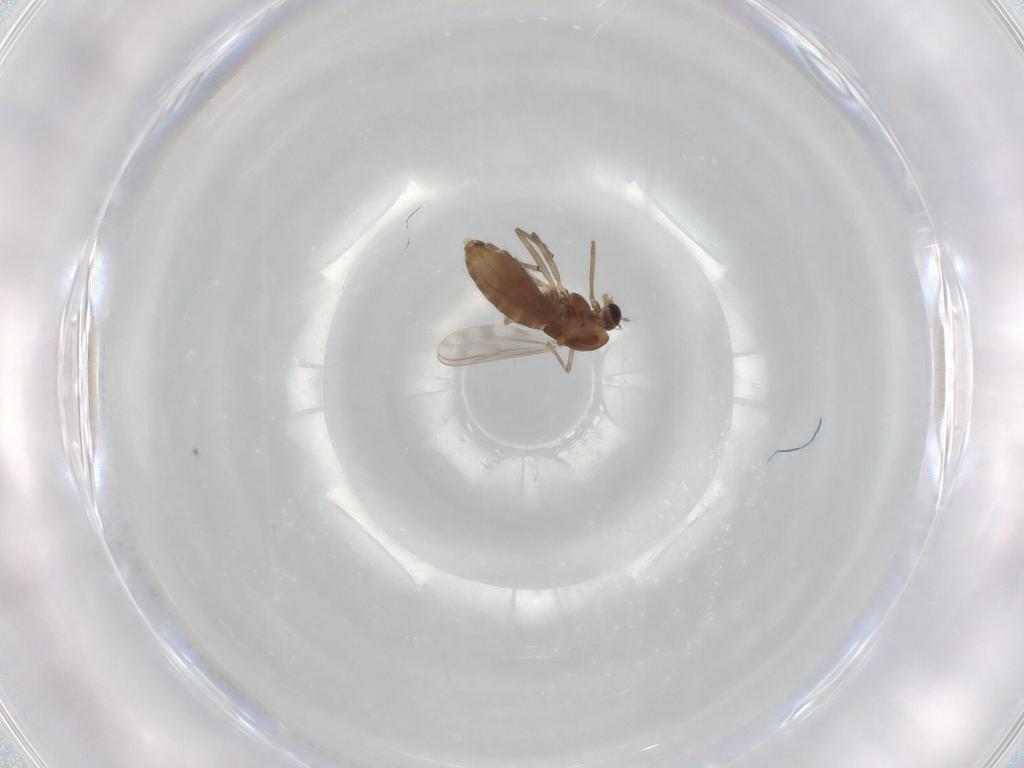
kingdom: Animalia
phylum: Arthropoda
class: Insecta
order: Diptera
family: Chironomidae
